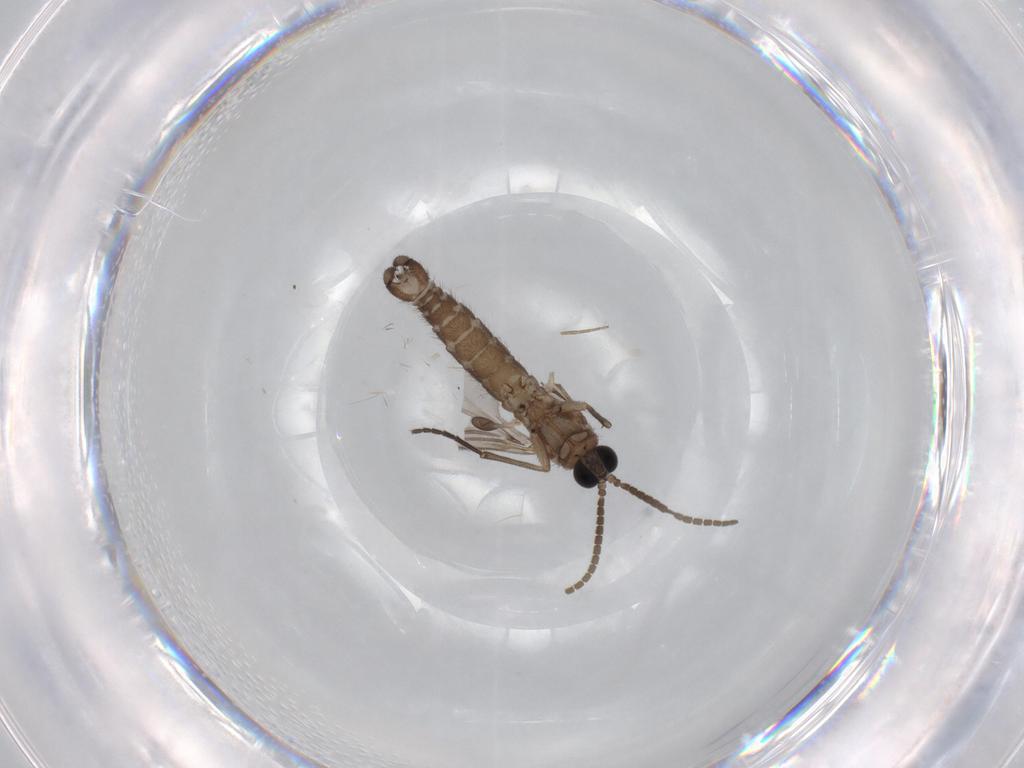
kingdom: Animalia
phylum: Arthropoda
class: Insecta
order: Diptera
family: Phoridae
